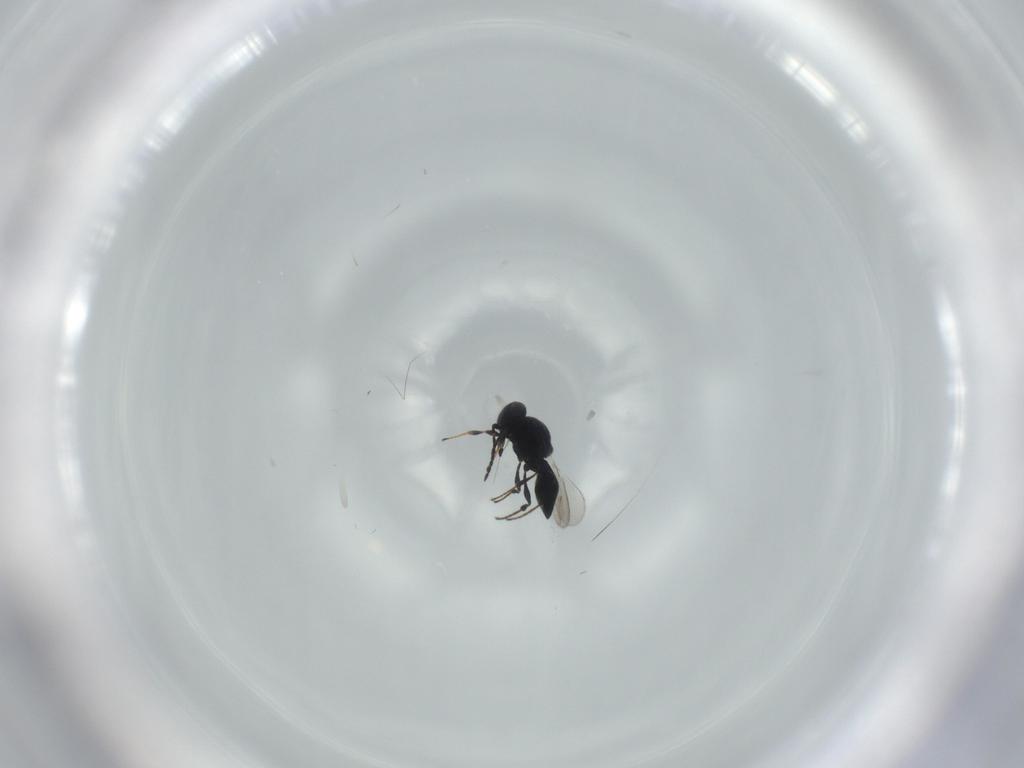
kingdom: Animalia
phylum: Arthropoda
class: Insecta
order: Diptera
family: Mythicomyiidae
